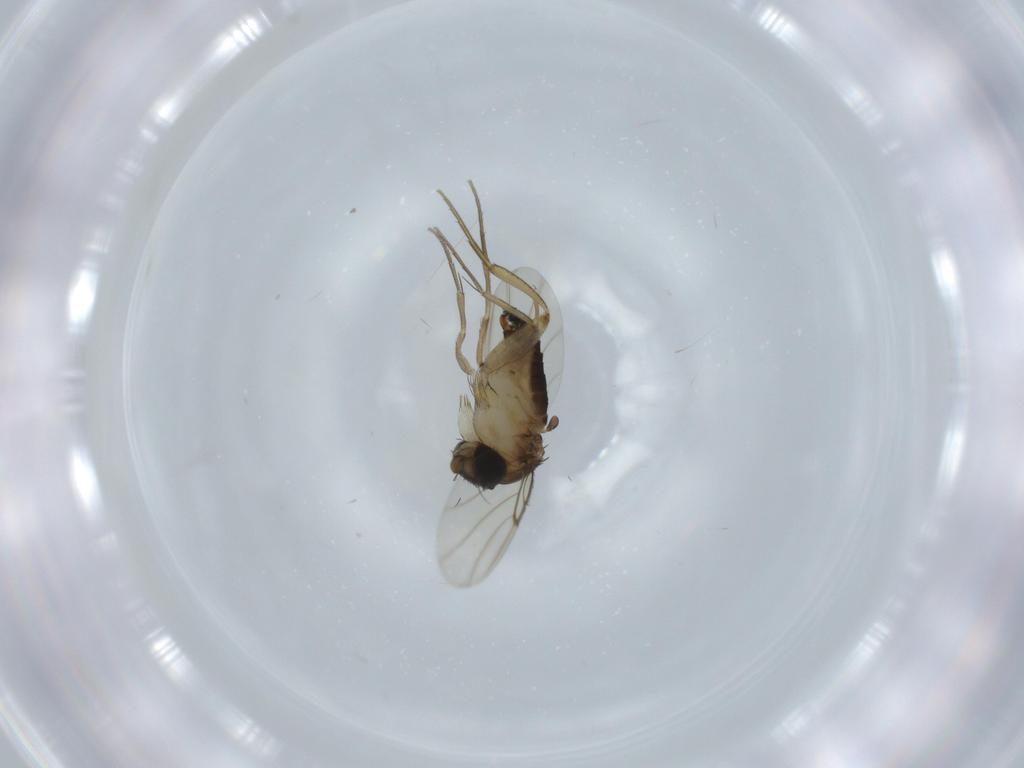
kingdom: Animalia
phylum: Arthropoda
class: Insecta
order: Diptera
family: Phoridae
